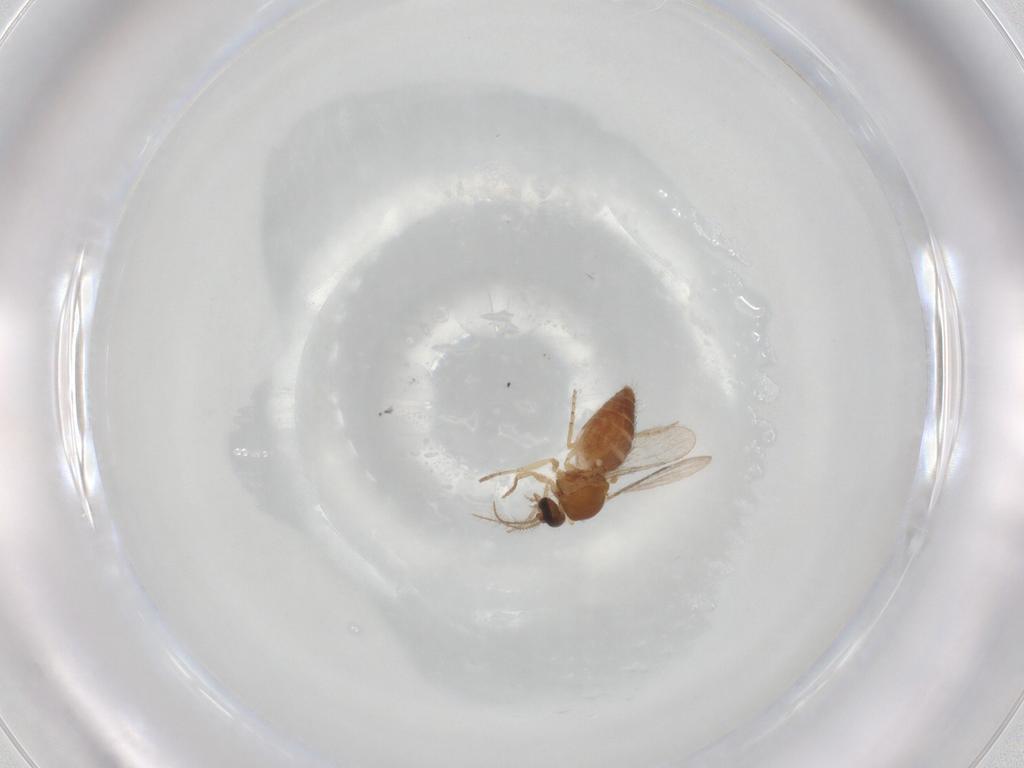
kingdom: Animalia
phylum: Arthropoda
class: Insecta
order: Diptera
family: Ceratopogonidae
